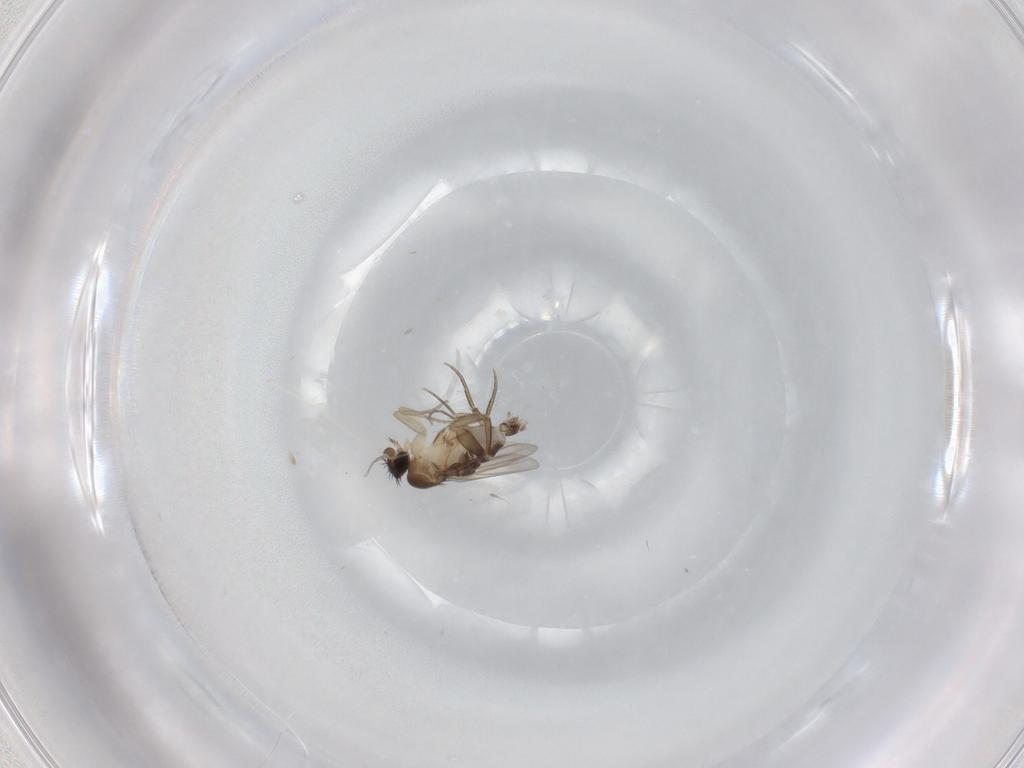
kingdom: Animalia
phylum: Arthropoda
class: Insecta
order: Diptera
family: Phoridae
